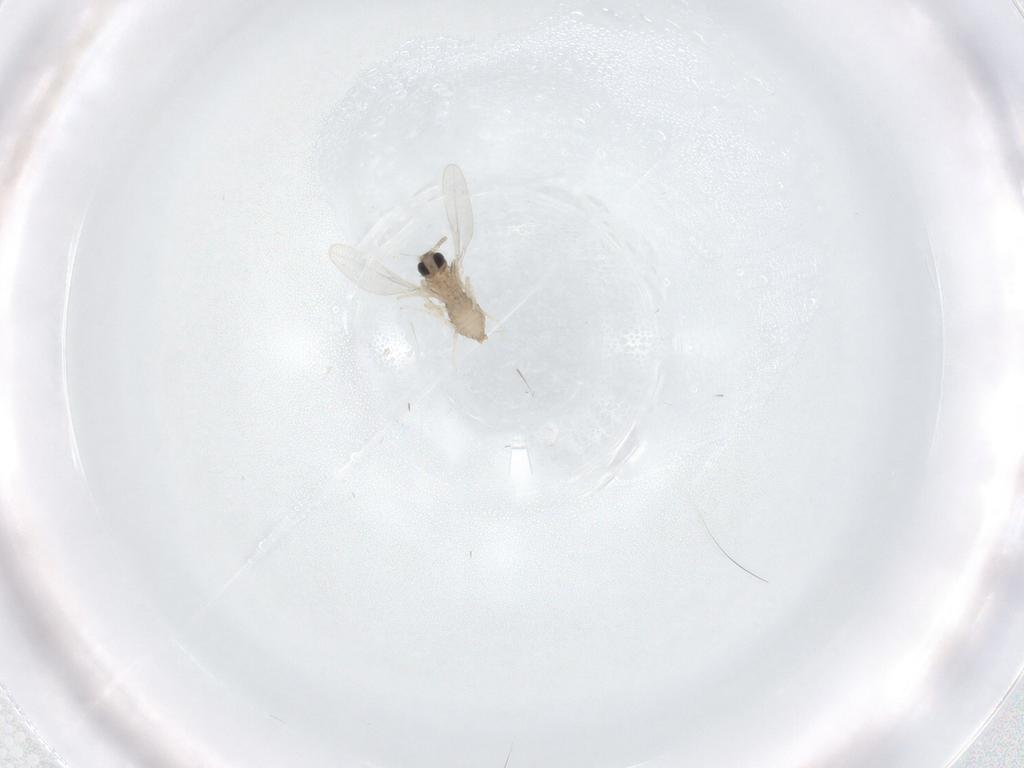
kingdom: Animalia
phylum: Arthropoda
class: Insecta
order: Diptera
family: Cecidomyiidae
